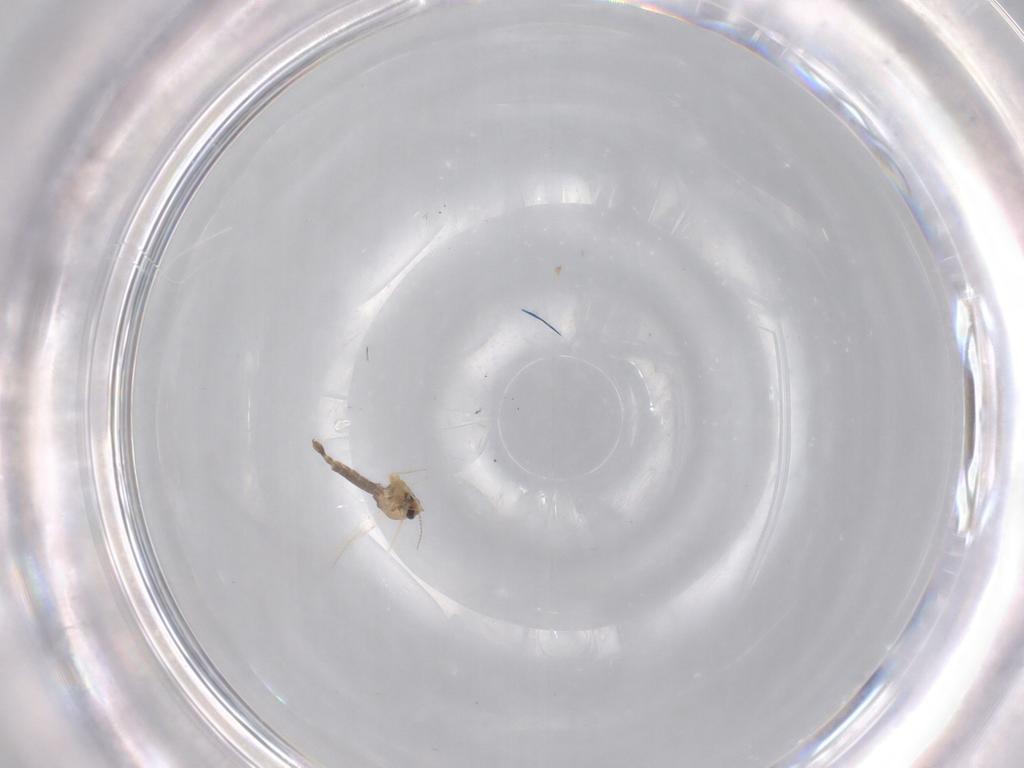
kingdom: Animalia
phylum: Arthropoda
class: Insecta
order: Diptera
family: Chironomidae
